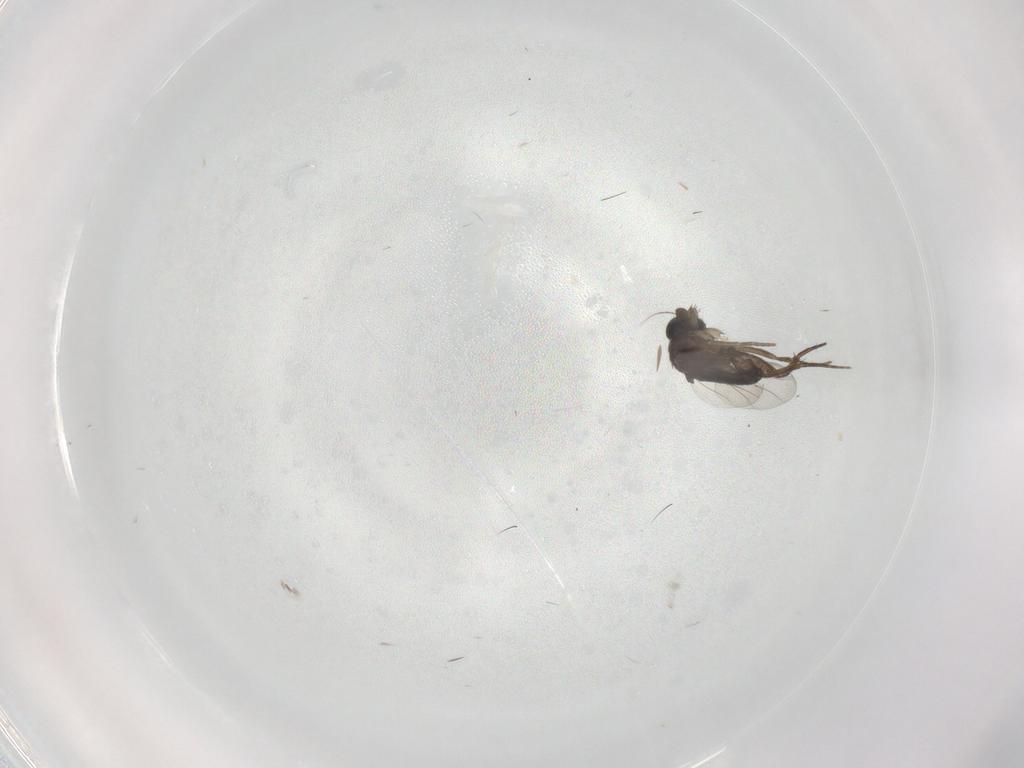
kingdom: Animalia
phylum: Arthropoda
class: Insecta
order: Diptera
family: Phoridae
